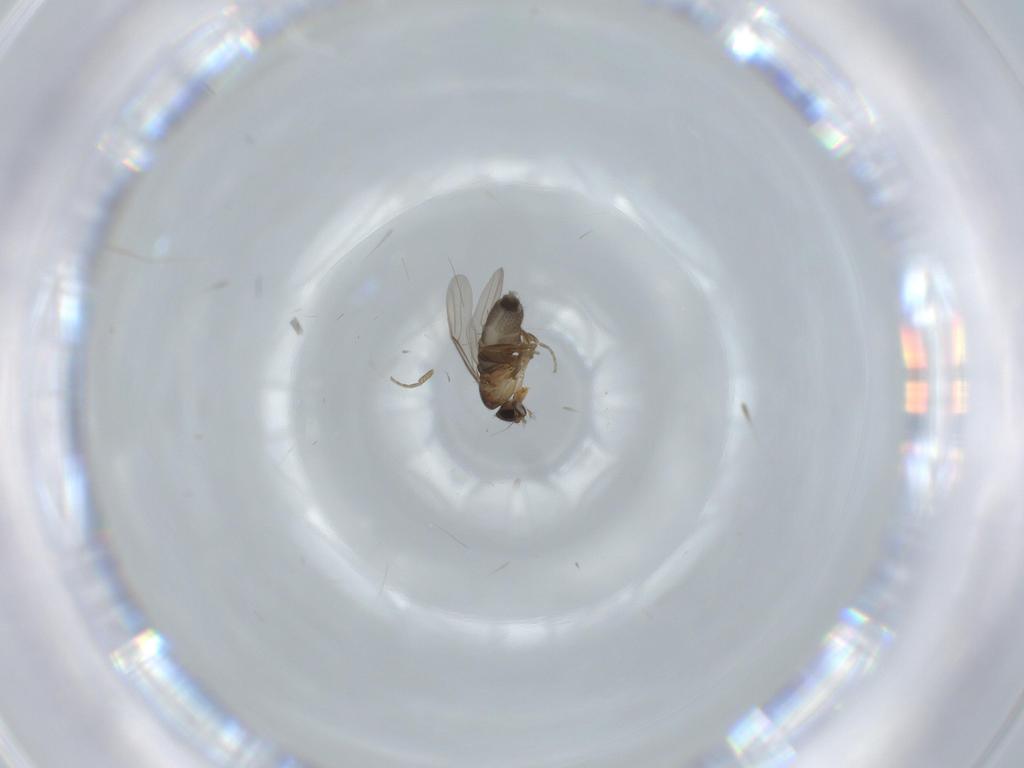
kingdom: Animalia
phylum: Arthropoda
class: Insecta
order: Diptera
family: Phoridae
